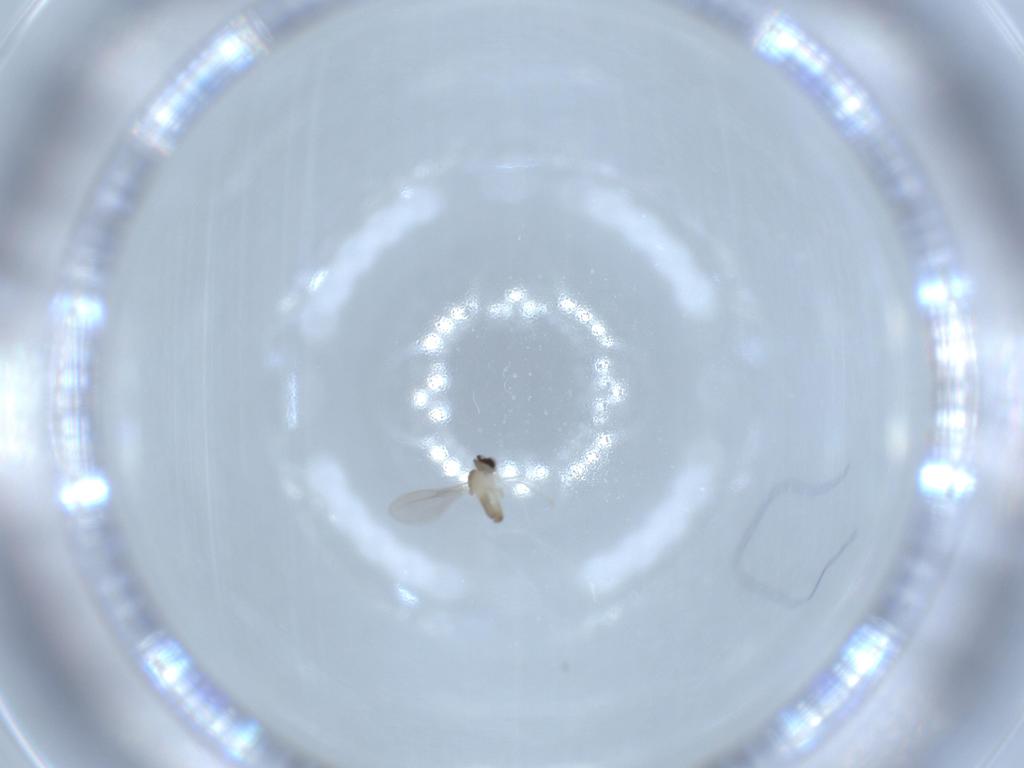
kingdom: Animalia
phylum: Arthropoda
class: Insecta
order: Diptera
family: Cecidomyiidae
